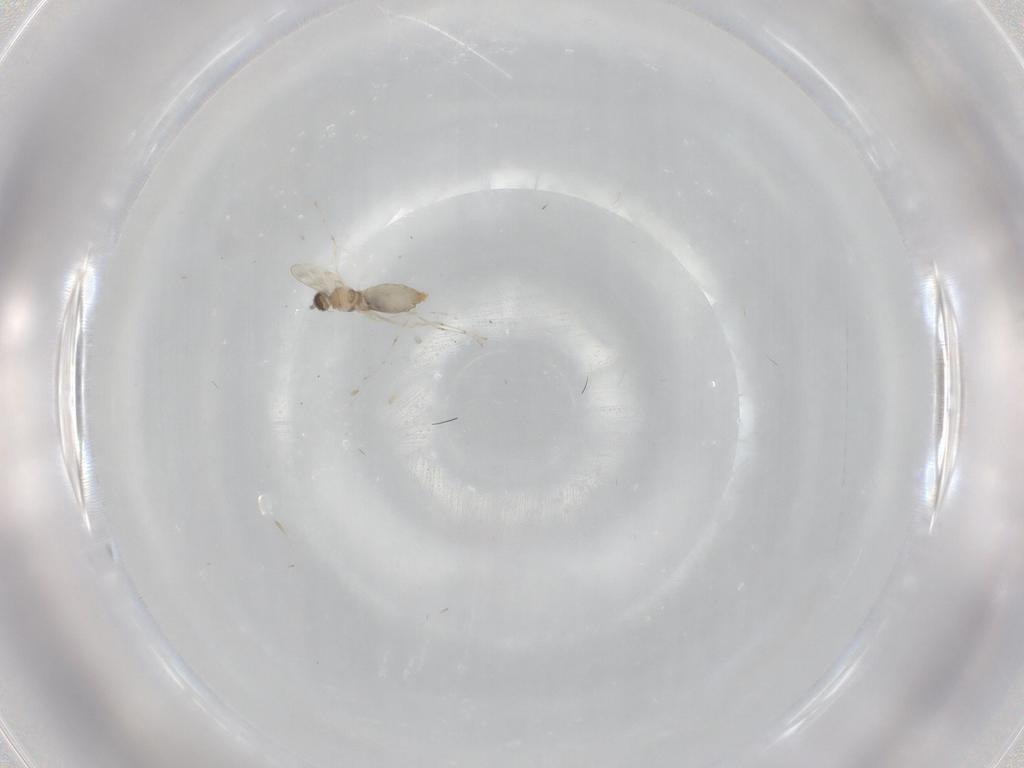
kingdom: Animalia
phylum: Arthropoda
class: Insecta
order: Diptera
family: Cecidomyiidae
